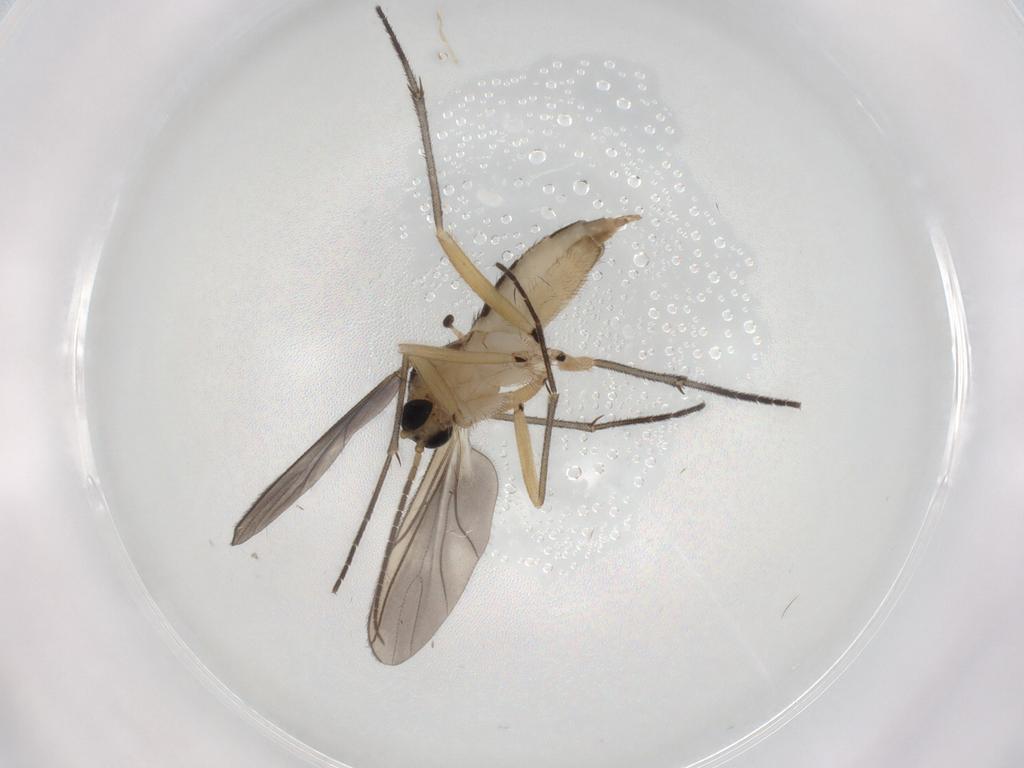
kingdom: Animalia
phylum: Arthropoda
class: Insecta
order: Diptera
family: Sciaridae
